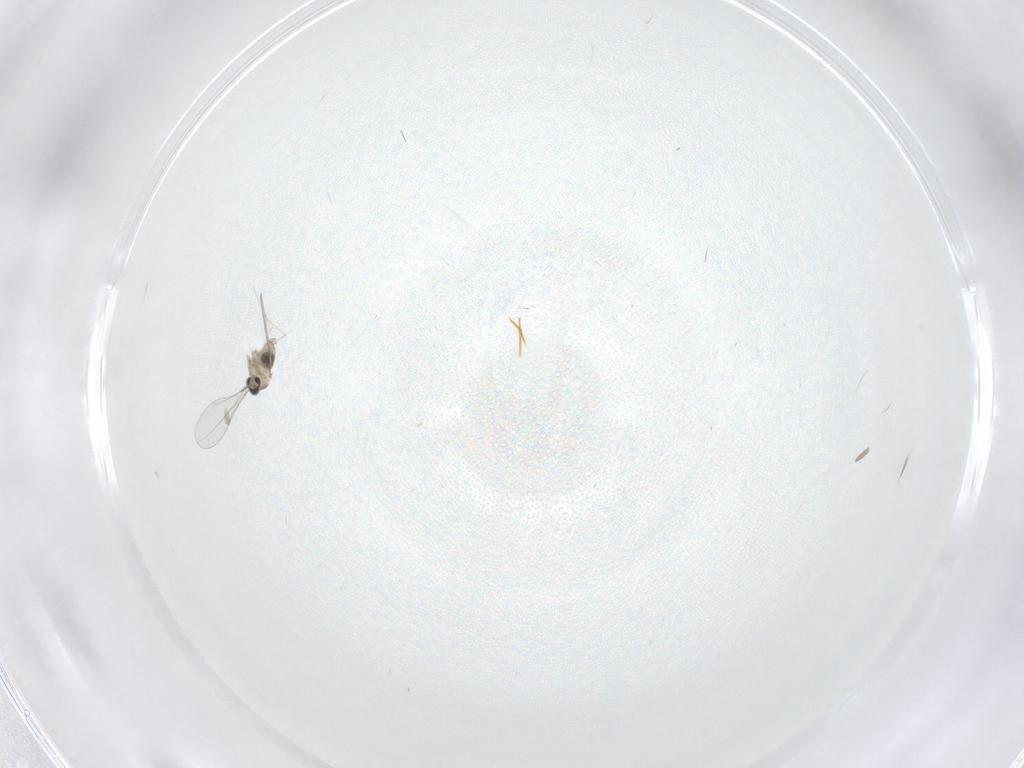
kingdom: Animalia
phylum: Arthropoda
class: Insecta
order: Diptera
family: Cecidomyiidae
